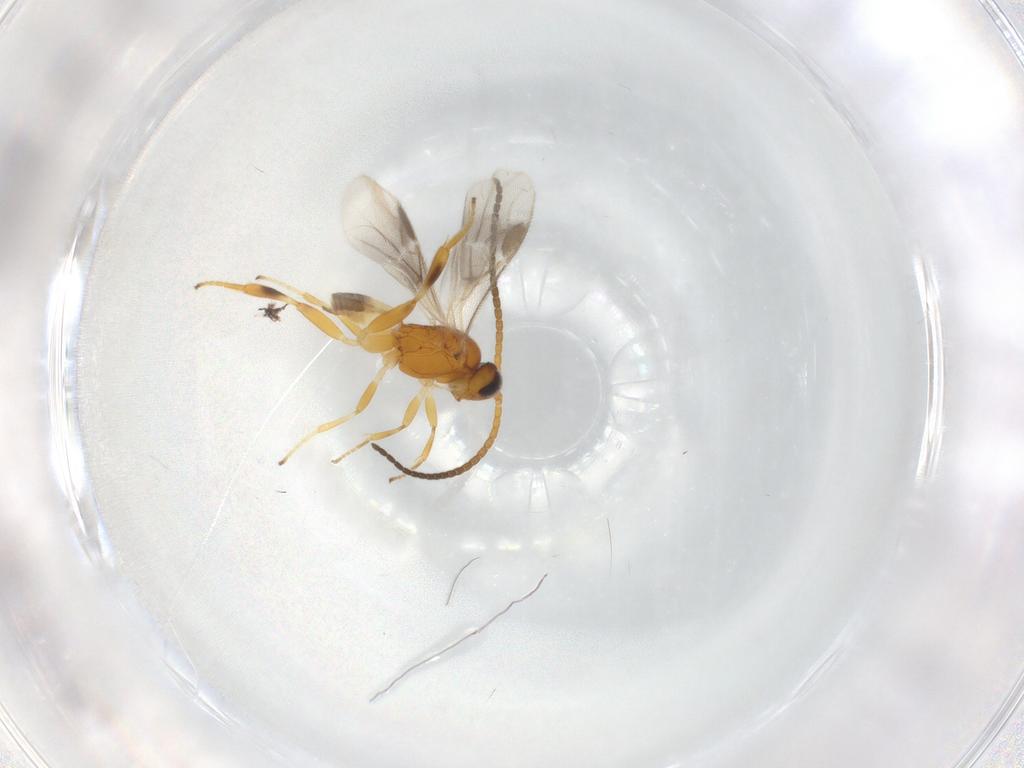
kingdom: Animalia
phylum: Arthropoda
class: Insecta
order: Hymenoptera
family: Braconidae
